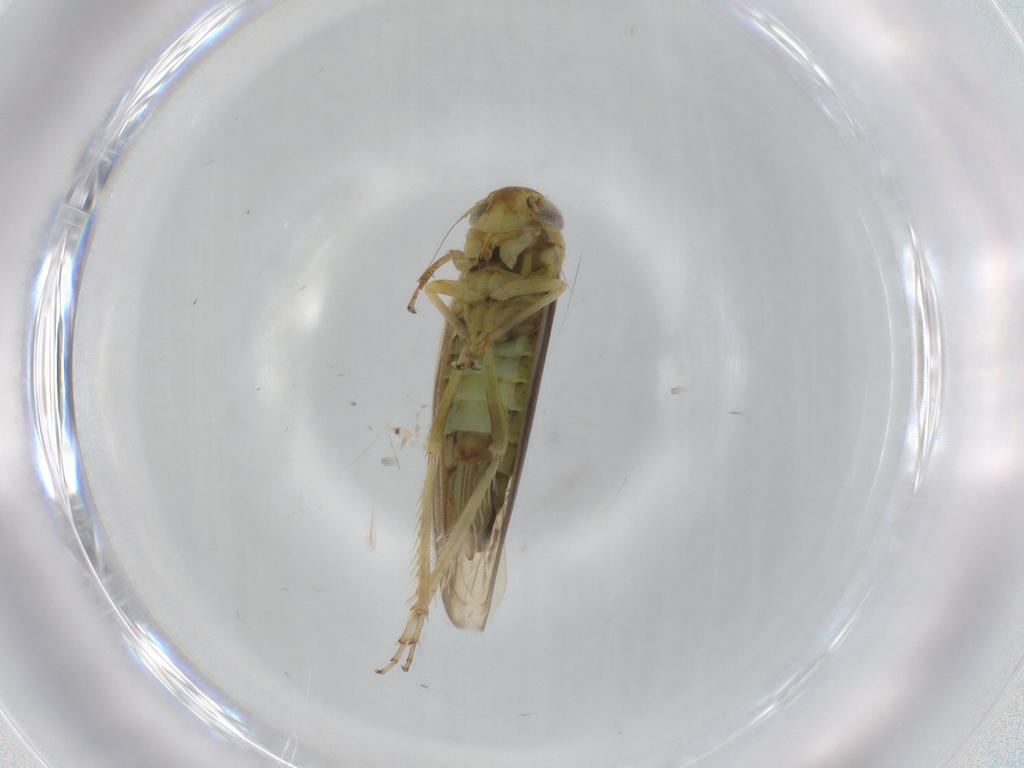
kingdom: Animalia
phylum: Arthropoda
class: Insecta
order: Hemiptera
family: Cicadellidae
